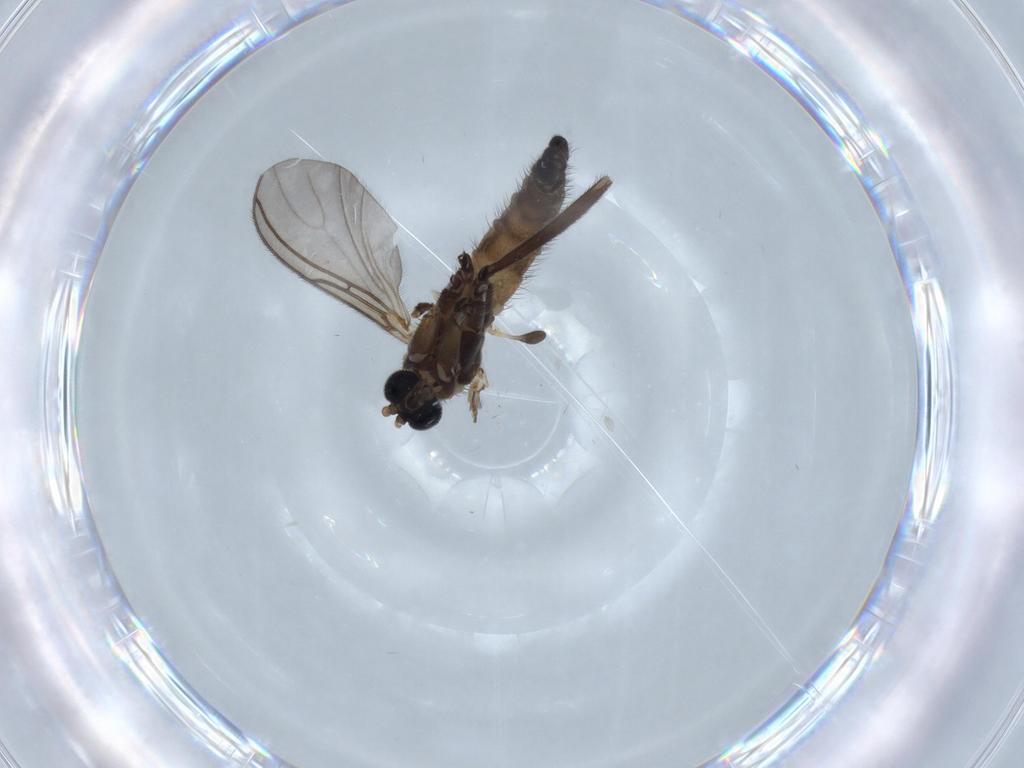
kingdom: Animalia
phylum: Arthropoda
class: Insecta
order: Diptera
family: Sciaridae
